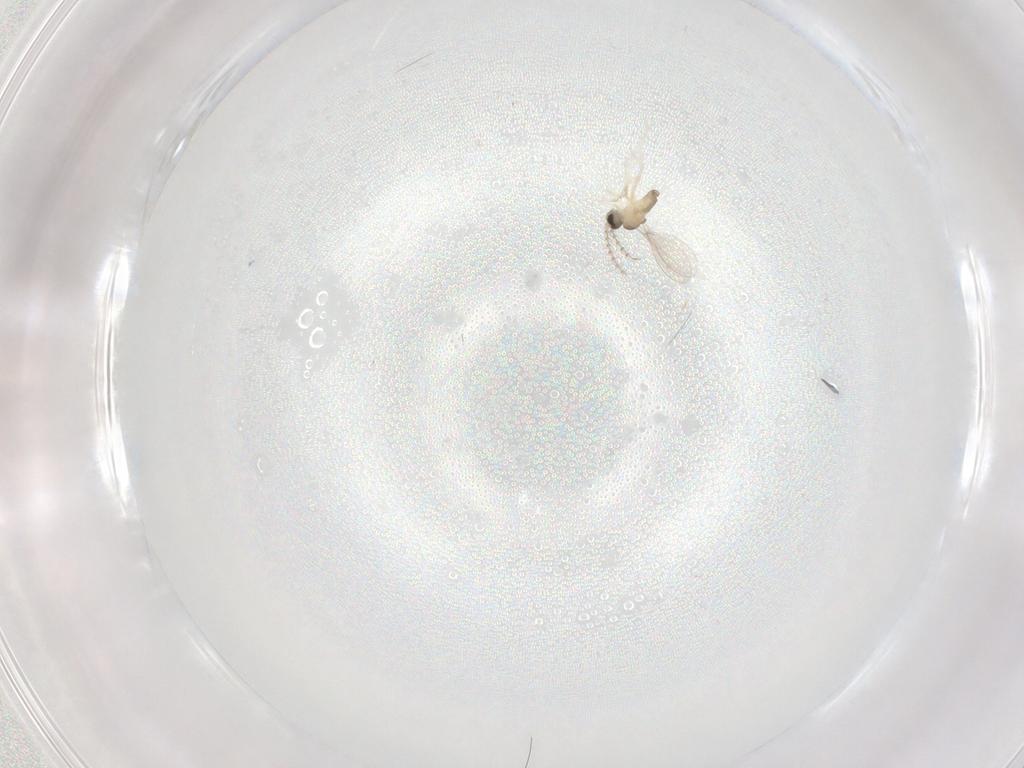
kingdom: Animalia
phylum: Arthropoda
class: Insecta
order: Diptera
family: Cecidomyiidae
